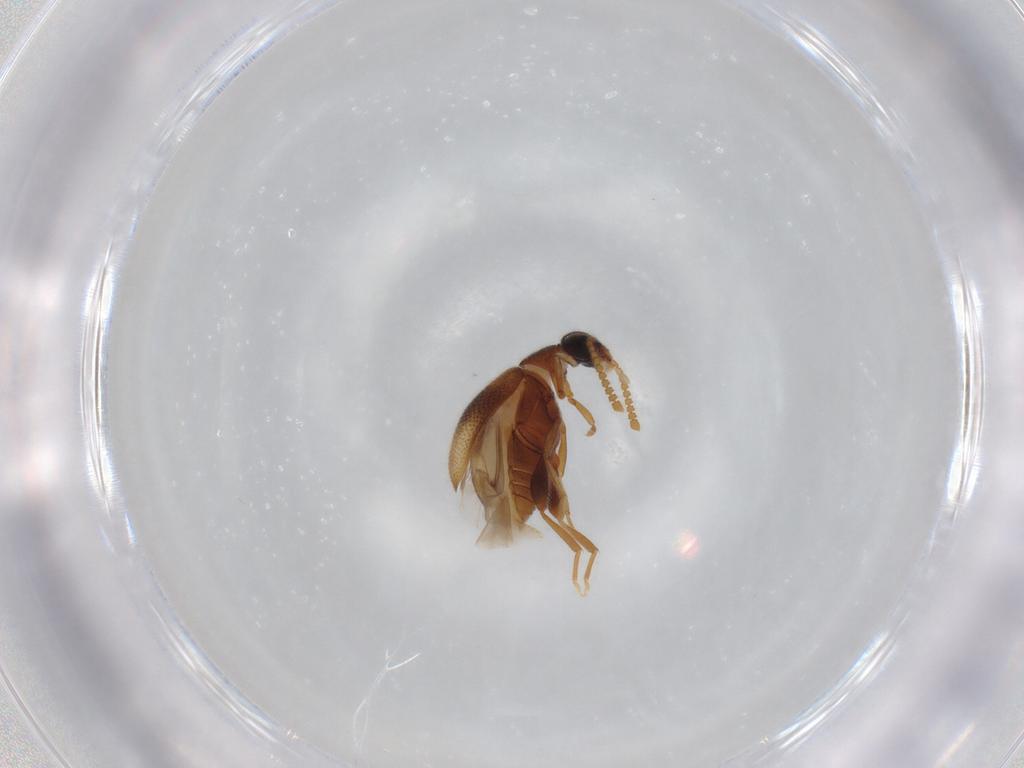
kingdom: Animalia
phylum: Arthropoda
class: Insecta
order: Coleoptera
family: Aderidae
